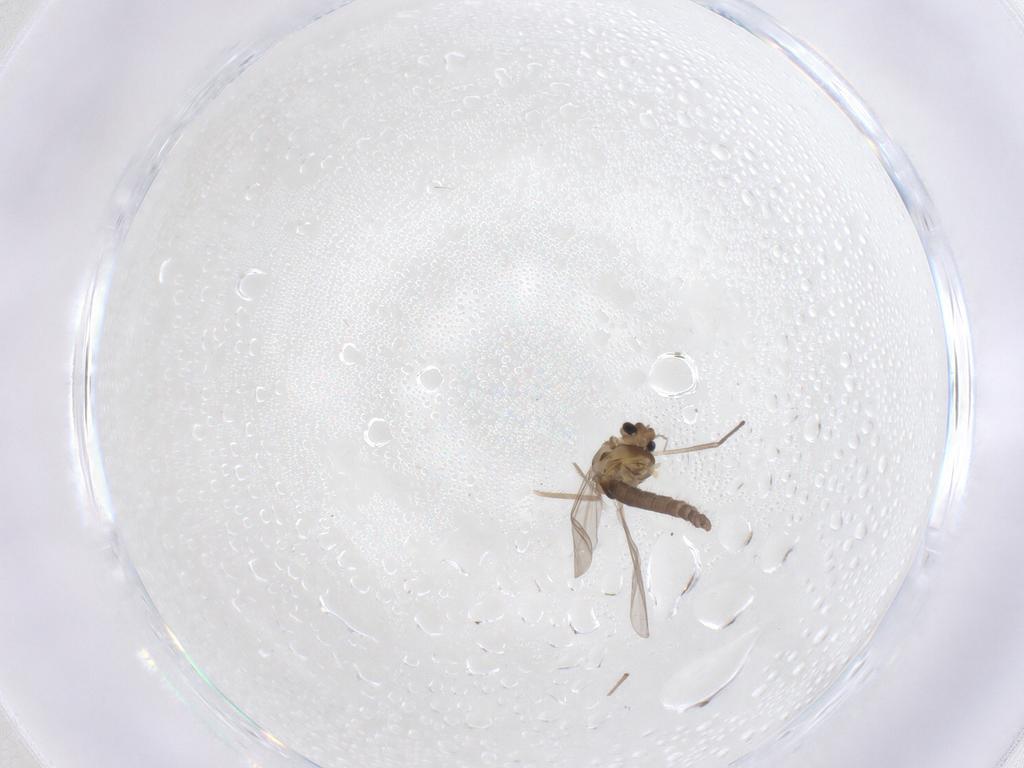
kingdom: Animalia
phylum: Arthropoda
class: Insecta
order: Diptera
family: Chironomidae
